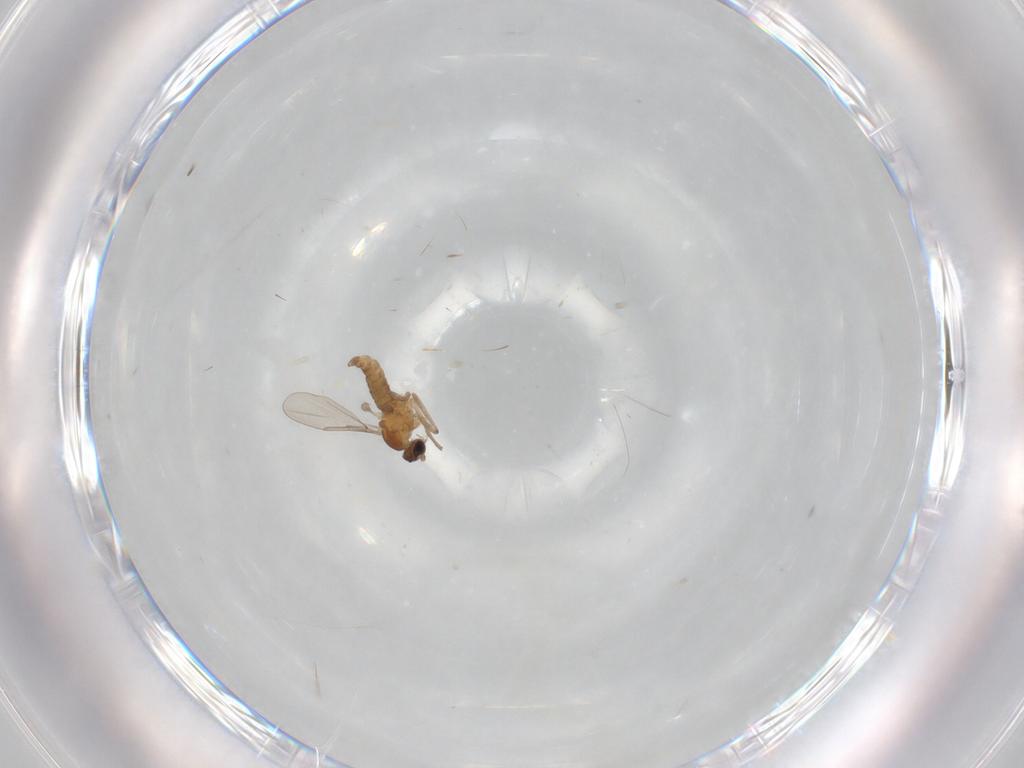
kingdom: Animalia
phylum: Arthropoda
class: Insecta
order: Diptera
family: Cecidomyiidae
